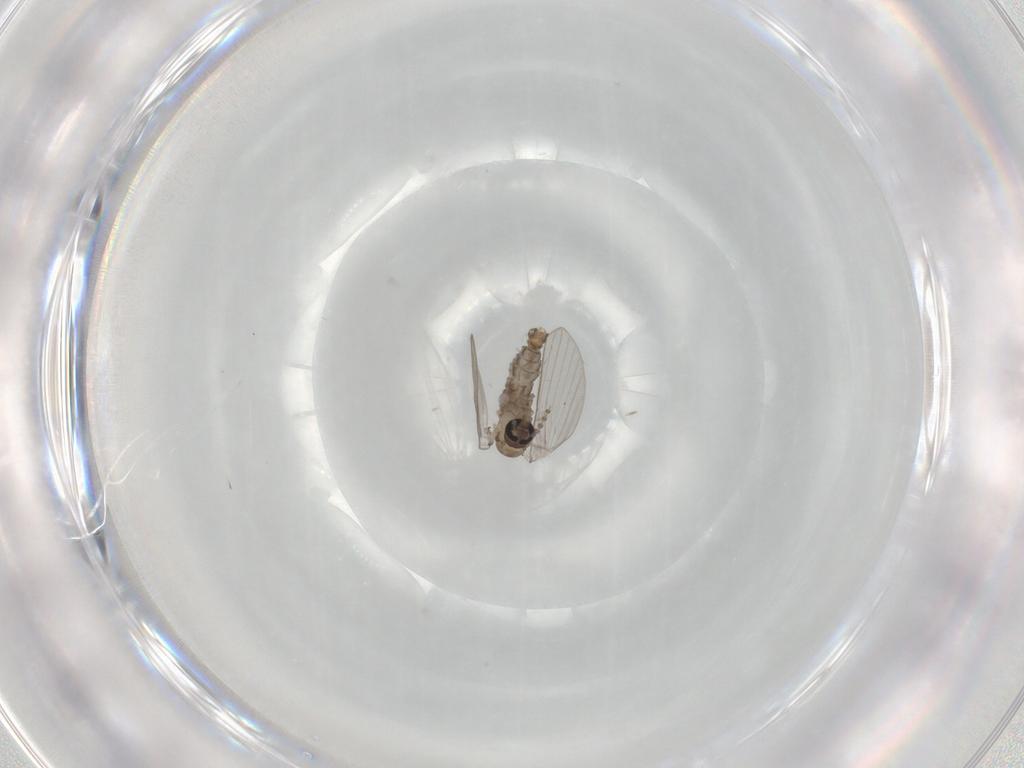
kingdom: Animalia
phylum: Arthropoda
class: Insecta
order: Diptera
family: Psychodidae
